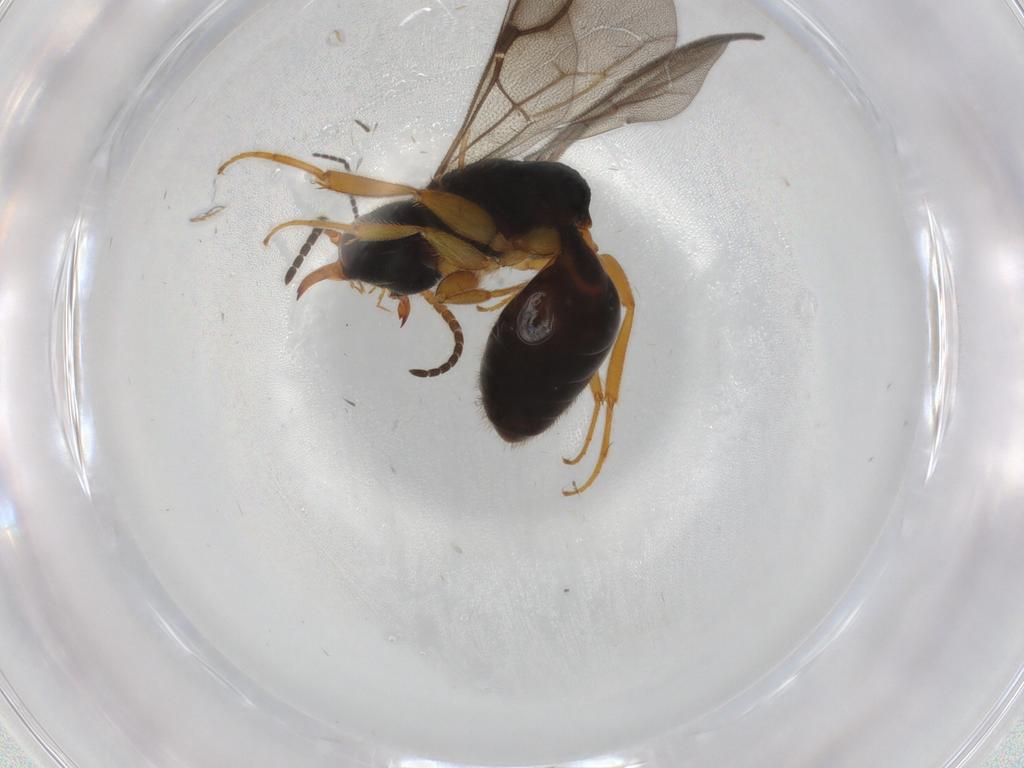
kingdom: Animalia
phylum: Arthropoda
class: Insecta
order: Hymenoptera
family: Bethylidae
